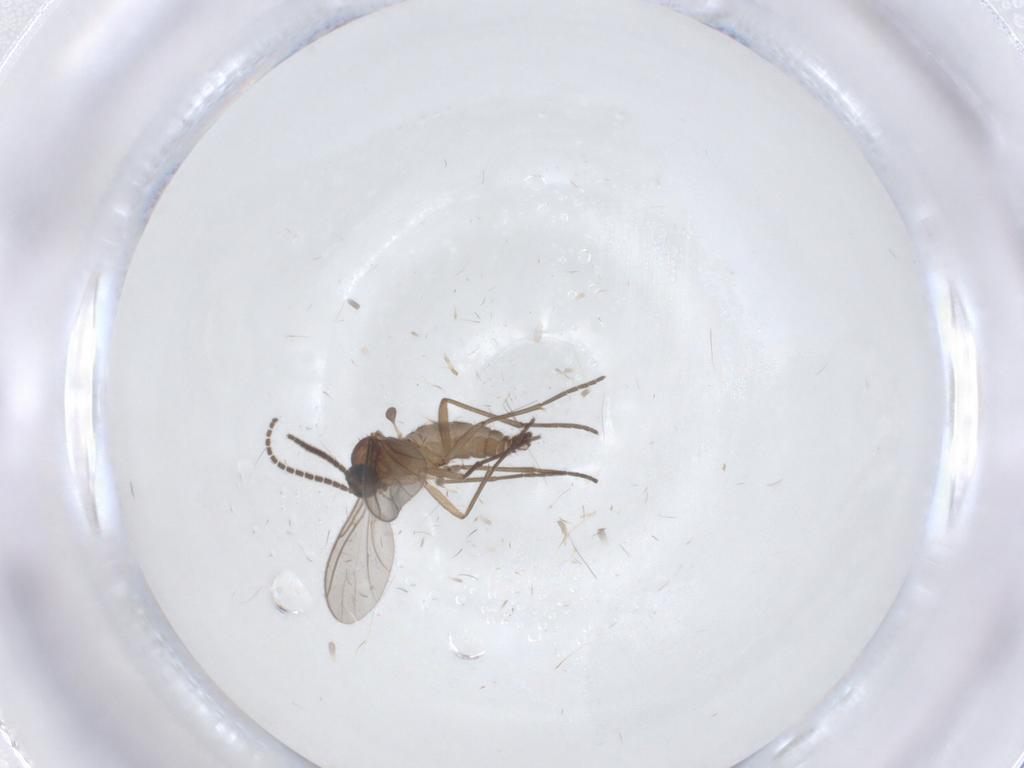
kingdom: Animalia
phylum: Arthropoda
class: Insecta
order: Diptera
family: Sciaridae
